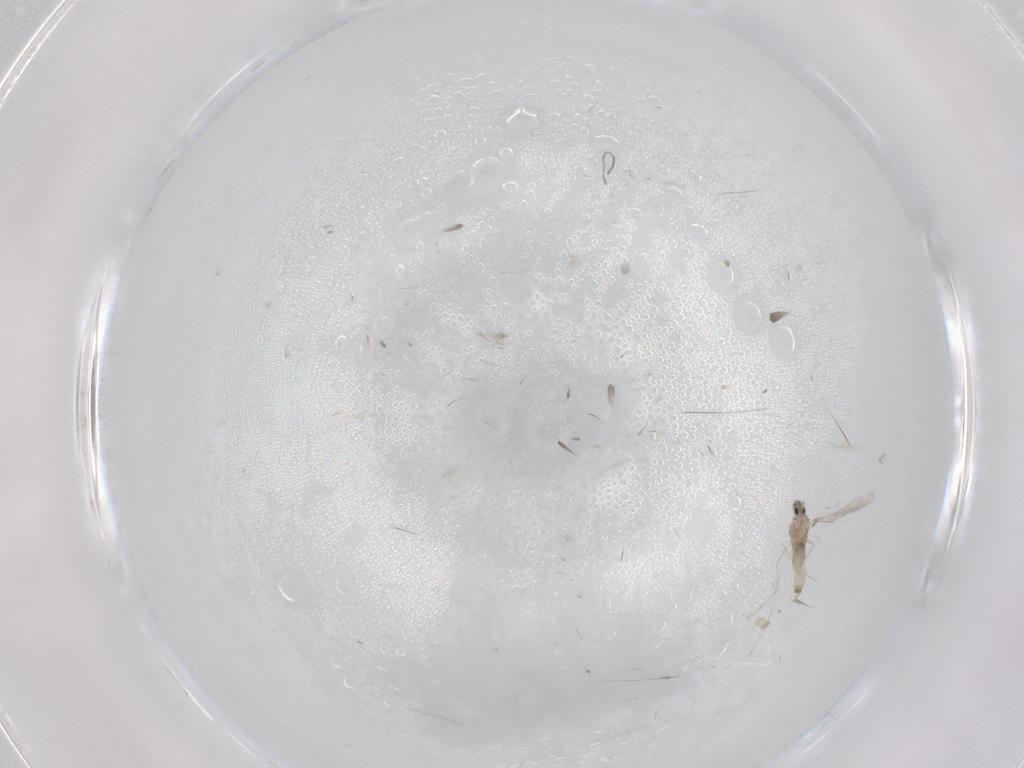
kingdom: Animalia
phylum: Arthropoda
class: Insecta
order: Diptera
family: Cecidomyiidae
